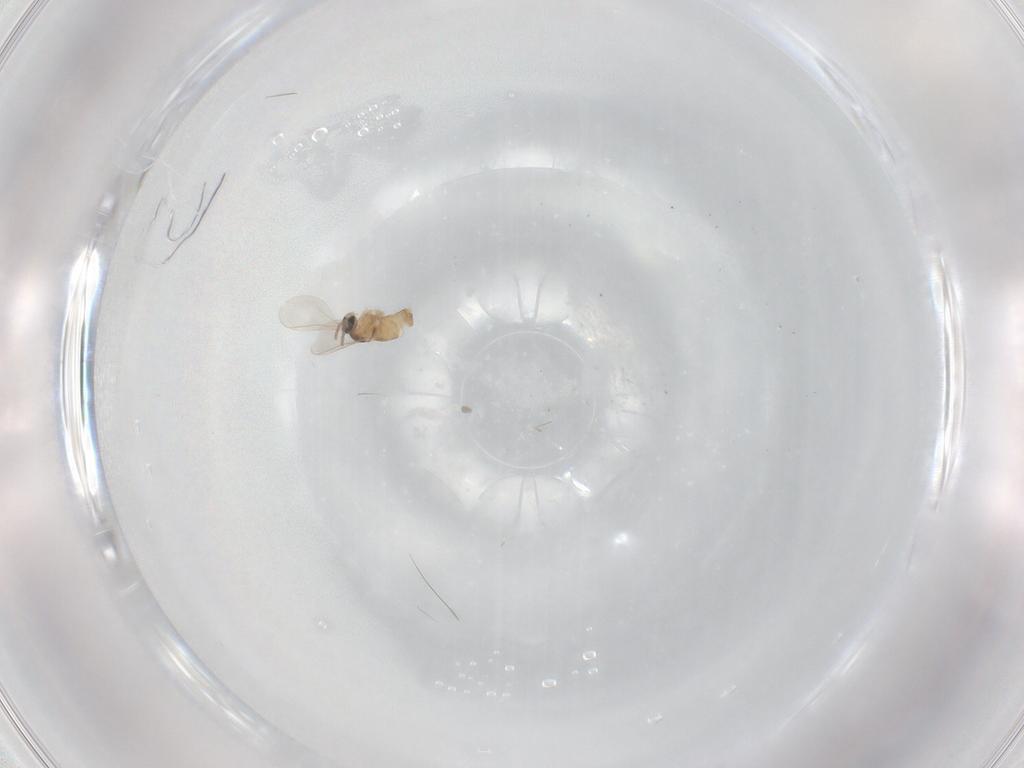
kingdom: Animalia
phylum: Arthropoda
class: Insecta
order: Diptera
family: Cecidomyiidae
